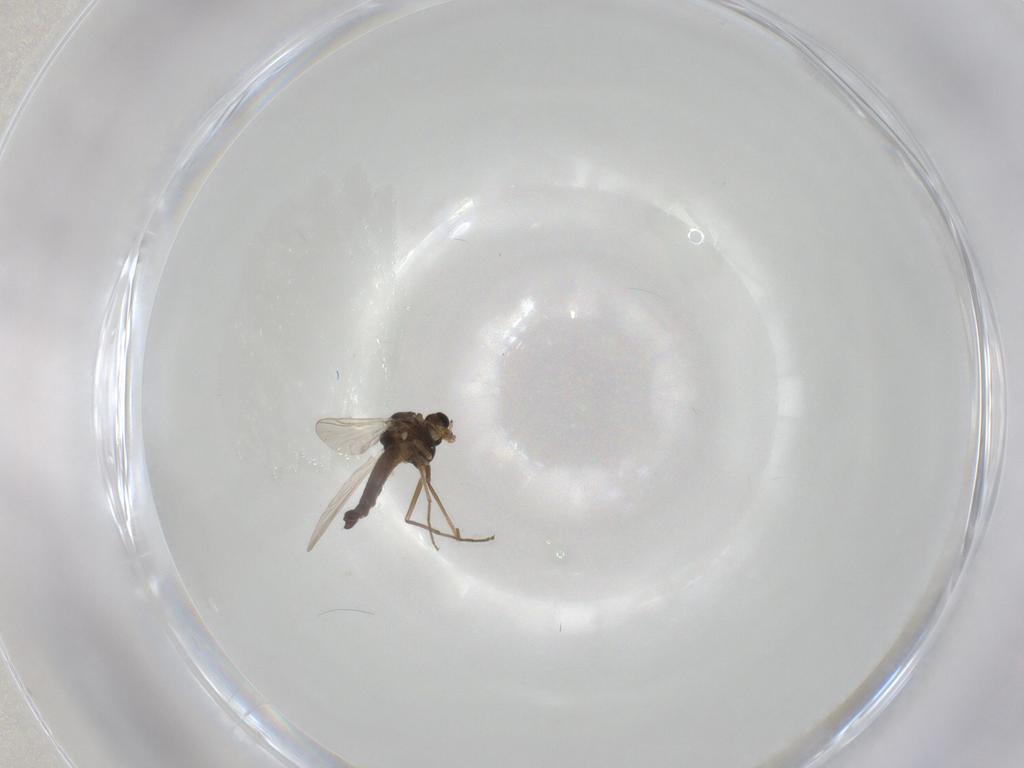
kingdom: Animalia
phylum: Arthropoda
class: Insecta
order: Diptera
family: Chironomidae
